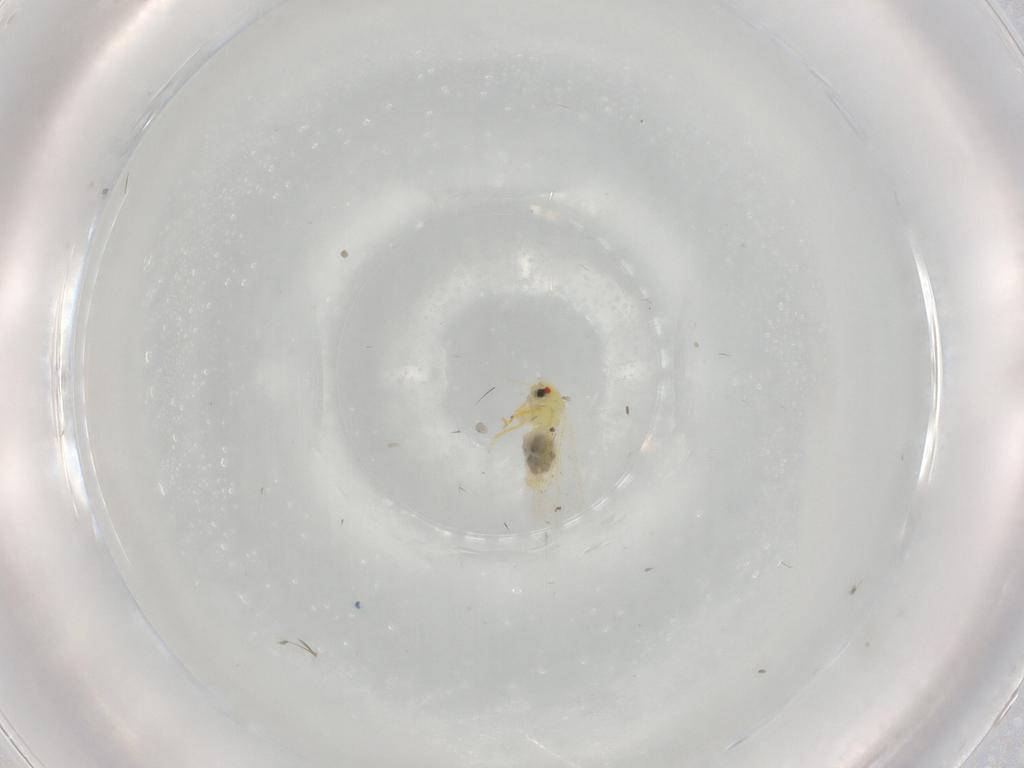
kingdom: Animalia
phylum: Arthropoda
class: Insecta
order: Hemiptera
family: Aleyrodidae
